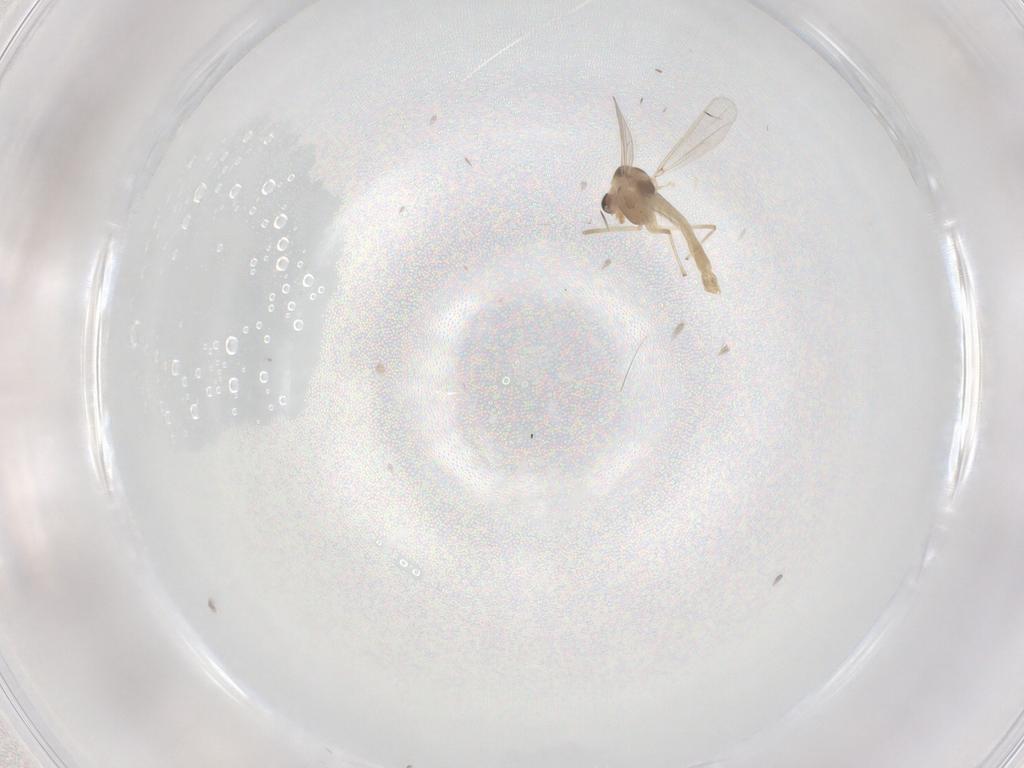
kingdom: Animalia
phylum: Arthropoda
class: Insecta
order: Diptera
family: Chironomidae
